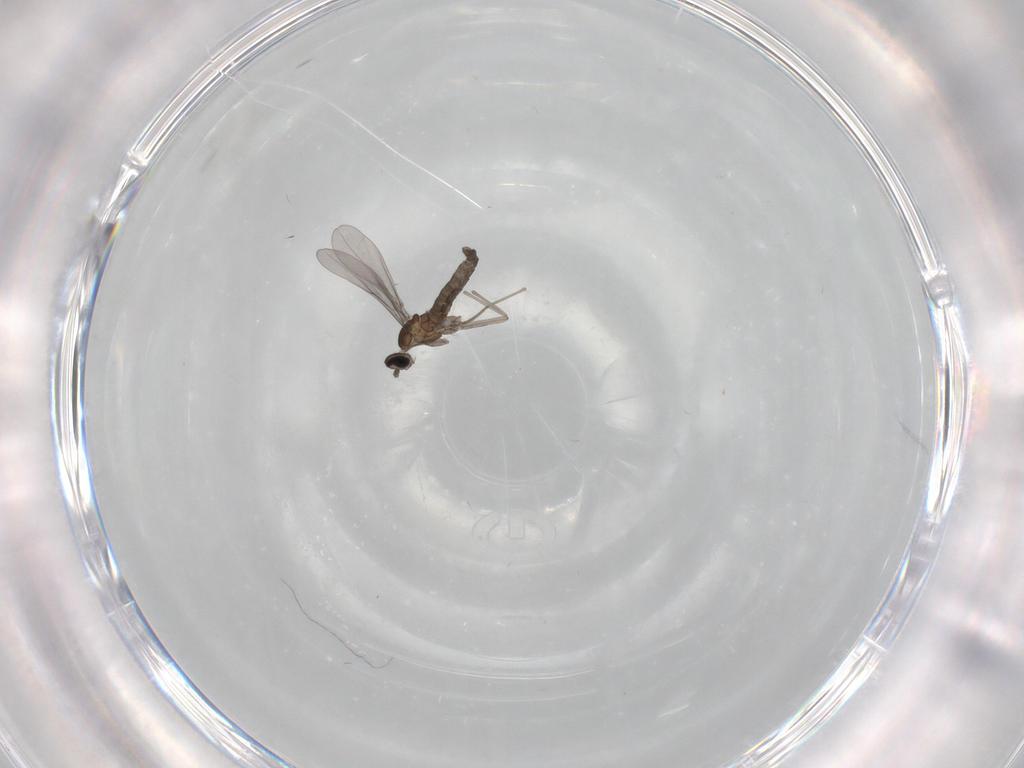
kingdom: Animalia
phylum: Arthropoda
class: Insecta
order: Diptera
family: Cecidomyiidae
